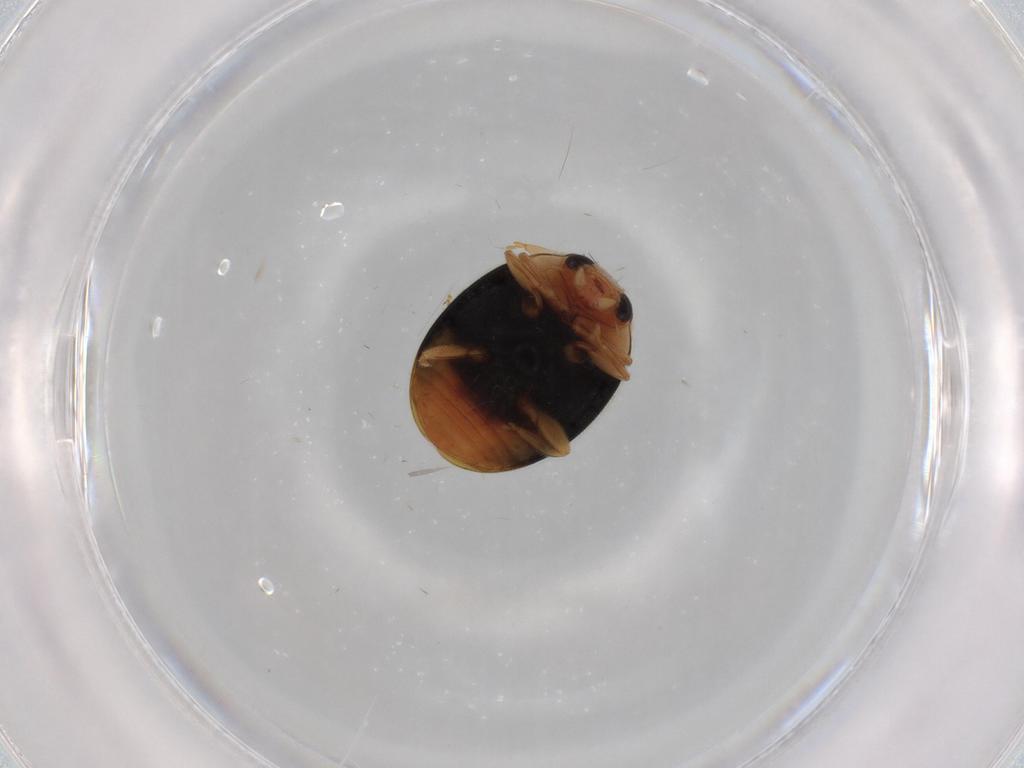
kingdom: Animalia
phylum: Arthropoda
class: Insecta
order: Coleoptera
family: Coccinellidae
